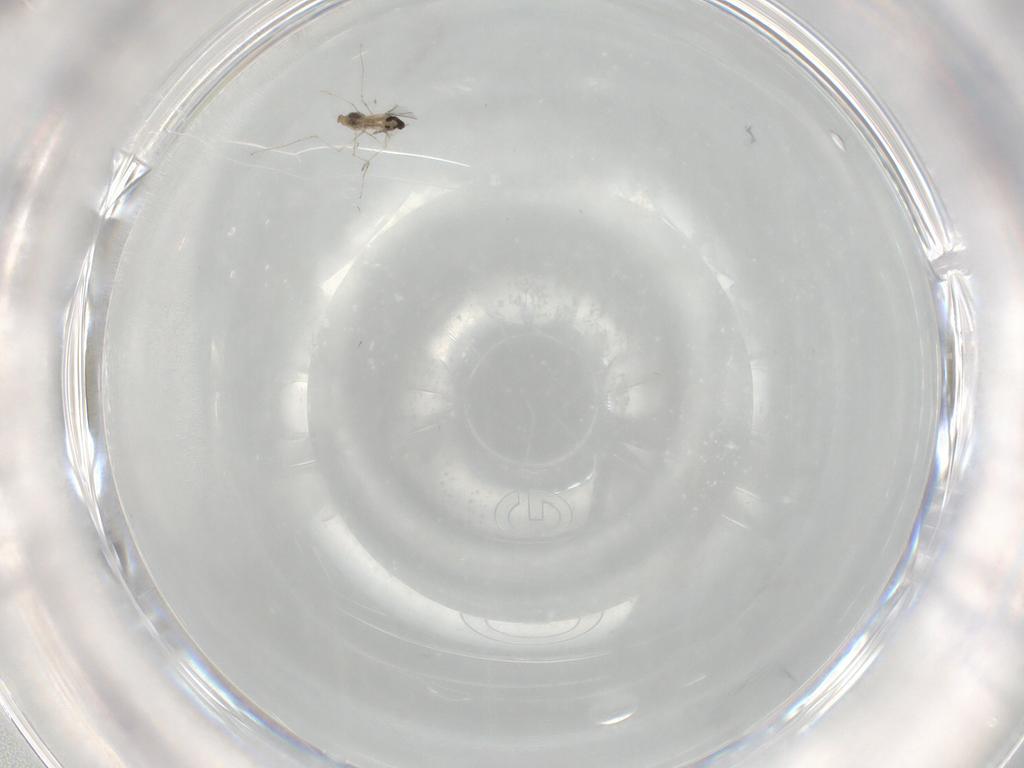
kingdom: Animalia
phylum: Arthropoda
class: Insecta
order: Diptera
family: Cecidomyiidae
